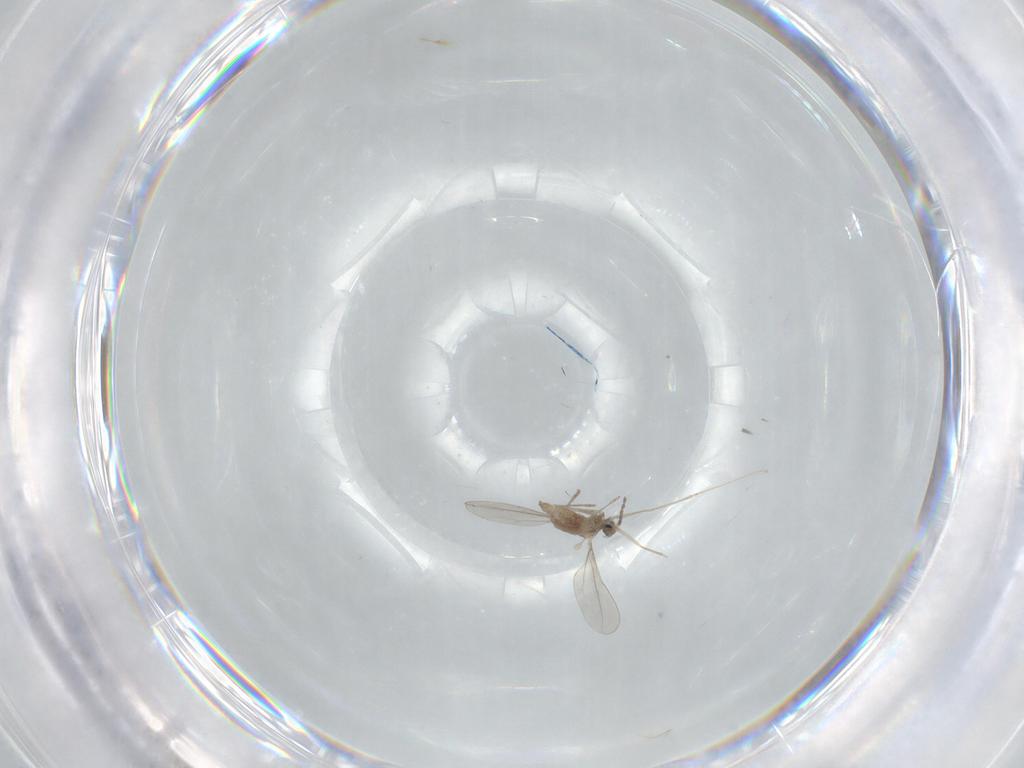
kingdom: Animalia
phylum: Arthropoda
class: Insecta
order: Diptera
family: Cecidomyiidae
